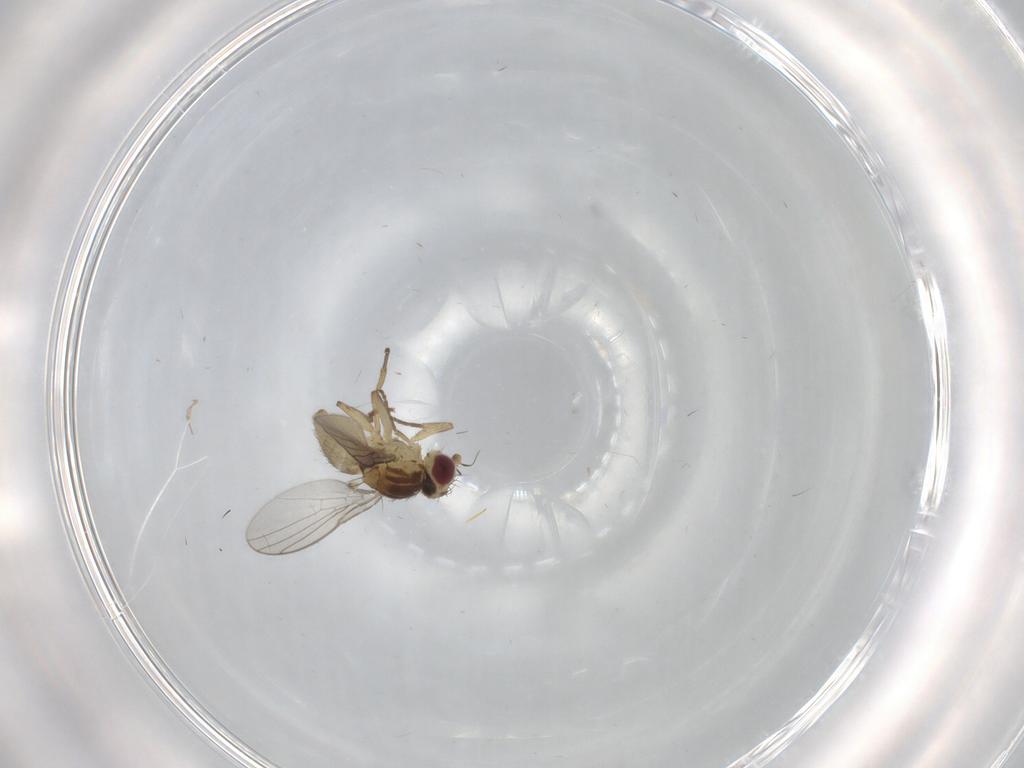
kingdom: Animalia
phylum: Arthropoda
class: Insecta
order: Diptera
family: Agromyzidae
